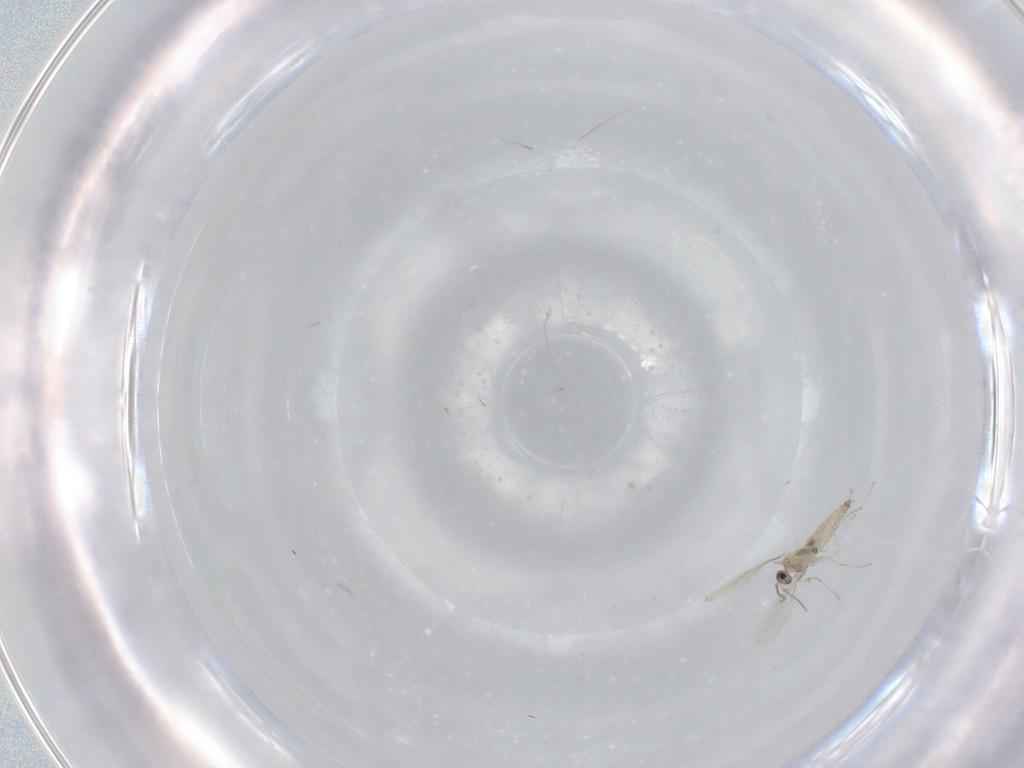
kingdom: Animalia
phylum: Arthropoda
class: Insecta
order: Diptera
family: Cecidomyiidae
